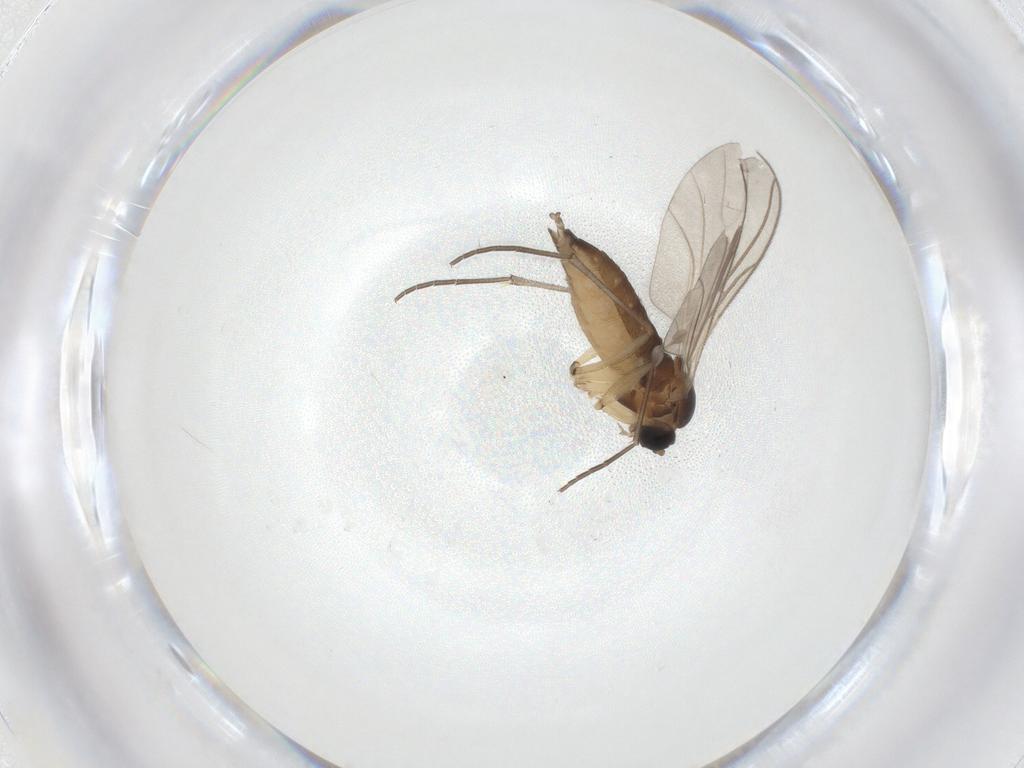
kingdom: Animalia
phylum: Arthropoda
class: Insecta
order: Diptera
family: Sciaridae
